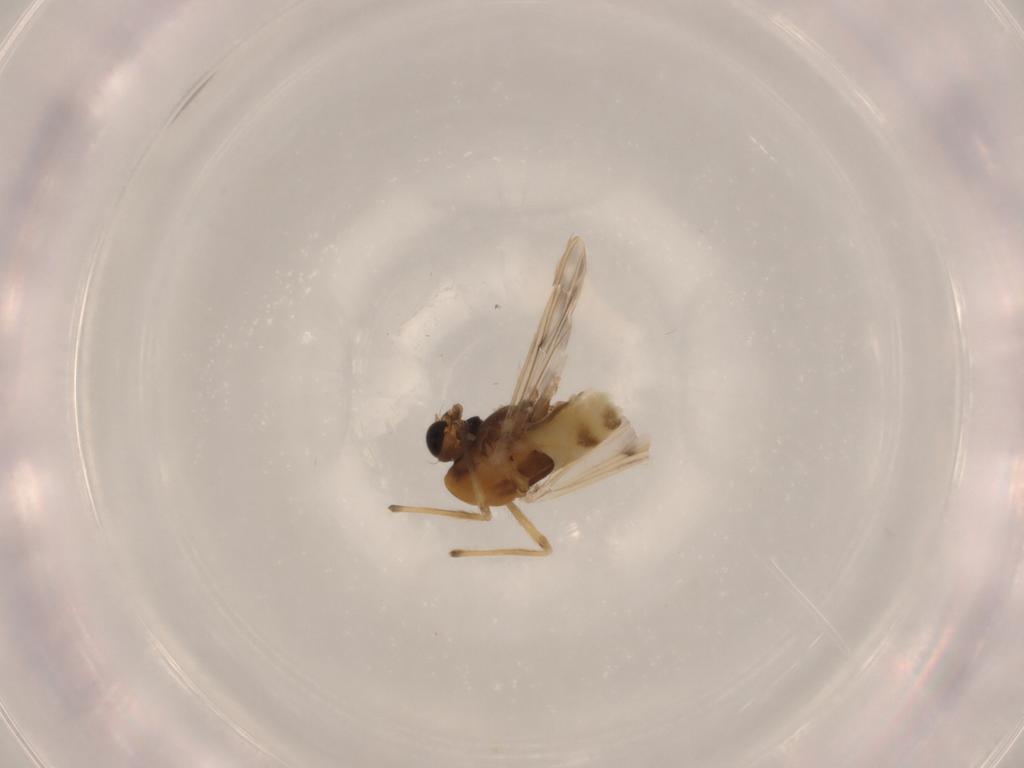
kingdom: Animalia
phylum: Arthropoda
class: Insecta
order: Diptera
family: Chironomidae
